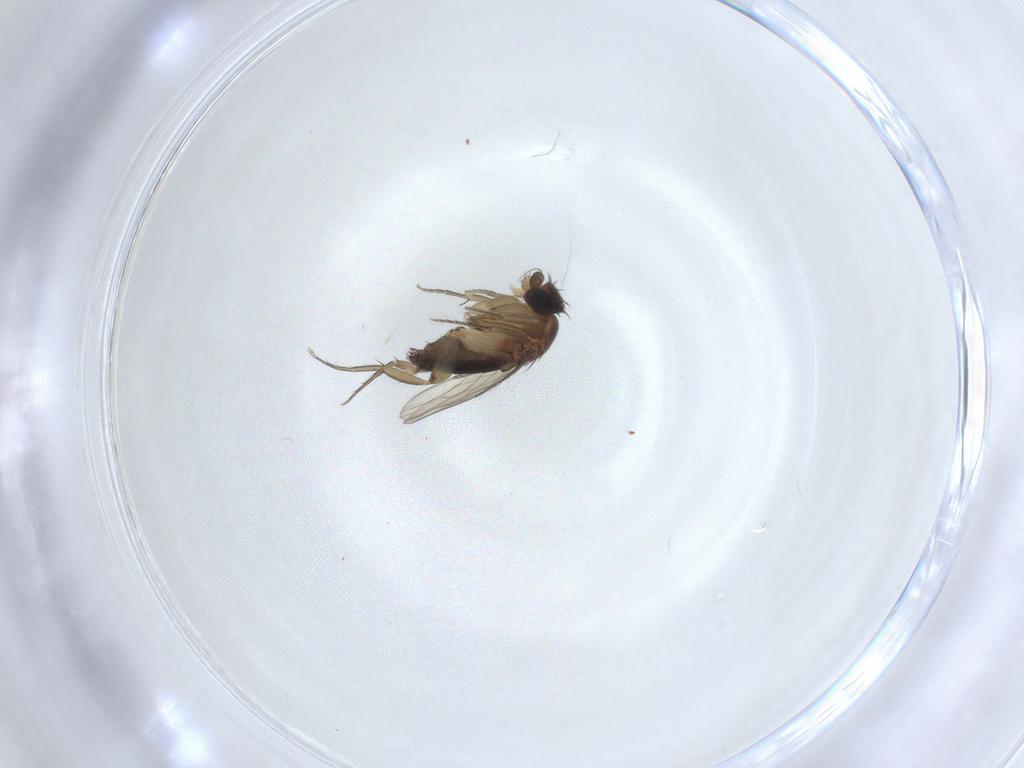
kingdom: Animalia
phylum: Arthropoda
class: Insecta
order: Diptera
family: Phoridae
